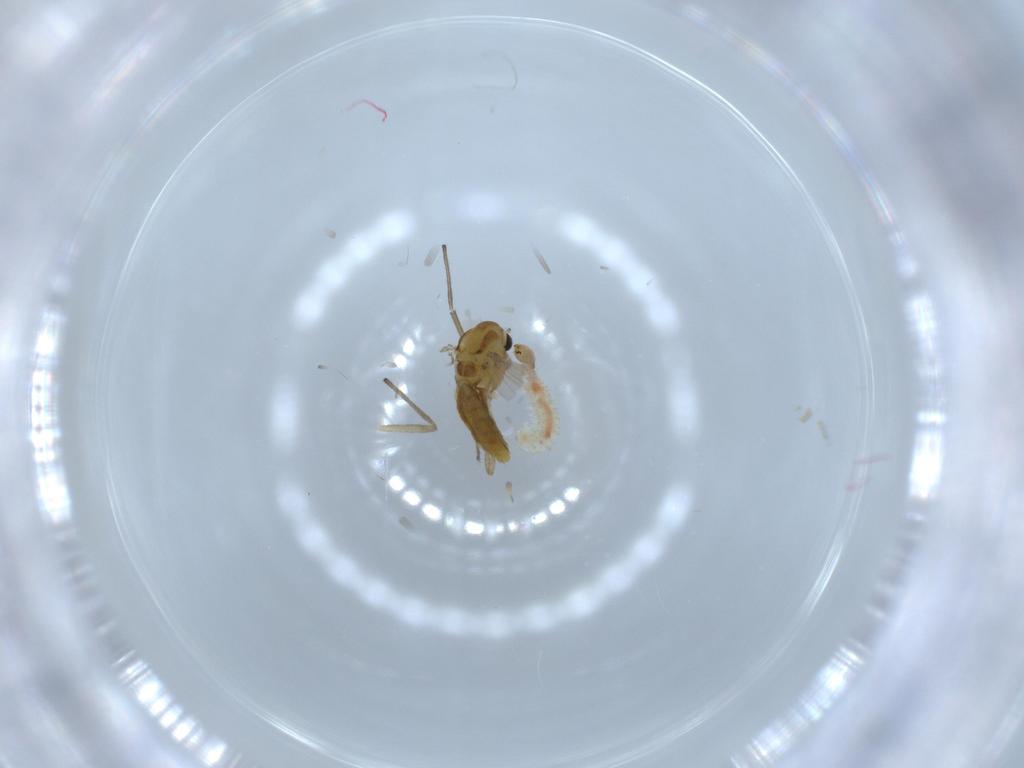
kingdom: Animalia
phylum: Arthropoda
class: Insecta
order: Diptera
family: Chironomidae
